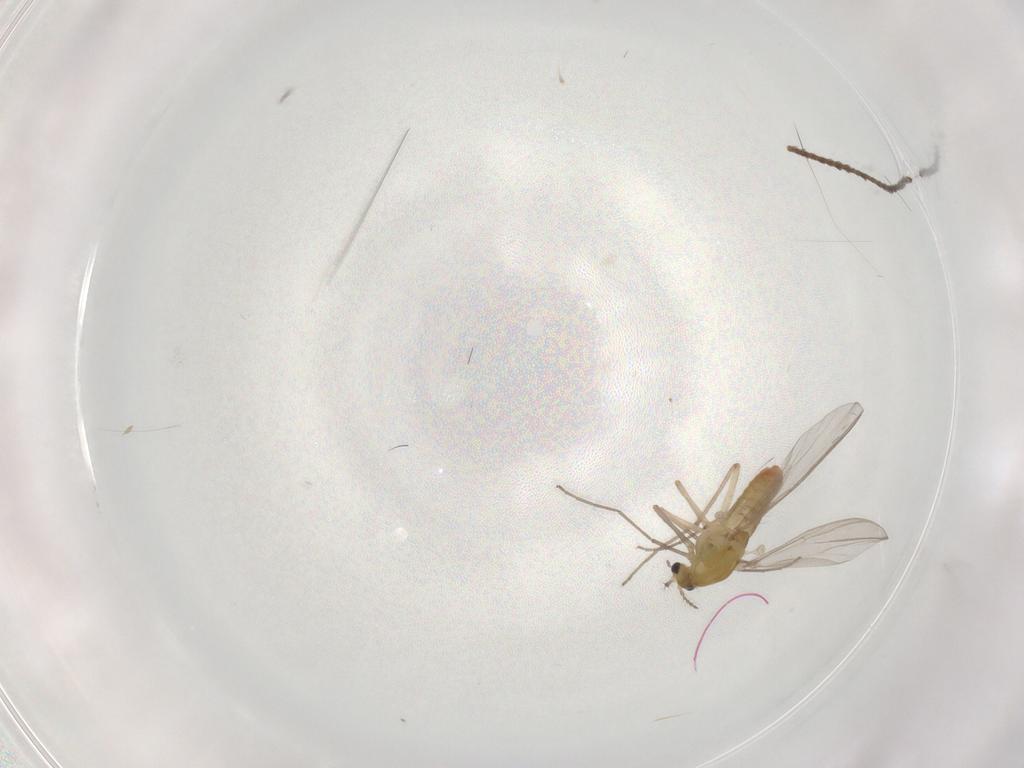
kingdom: Animalia
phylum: Arthropoda
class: Insecta
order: Diptera
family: Chironomidae
